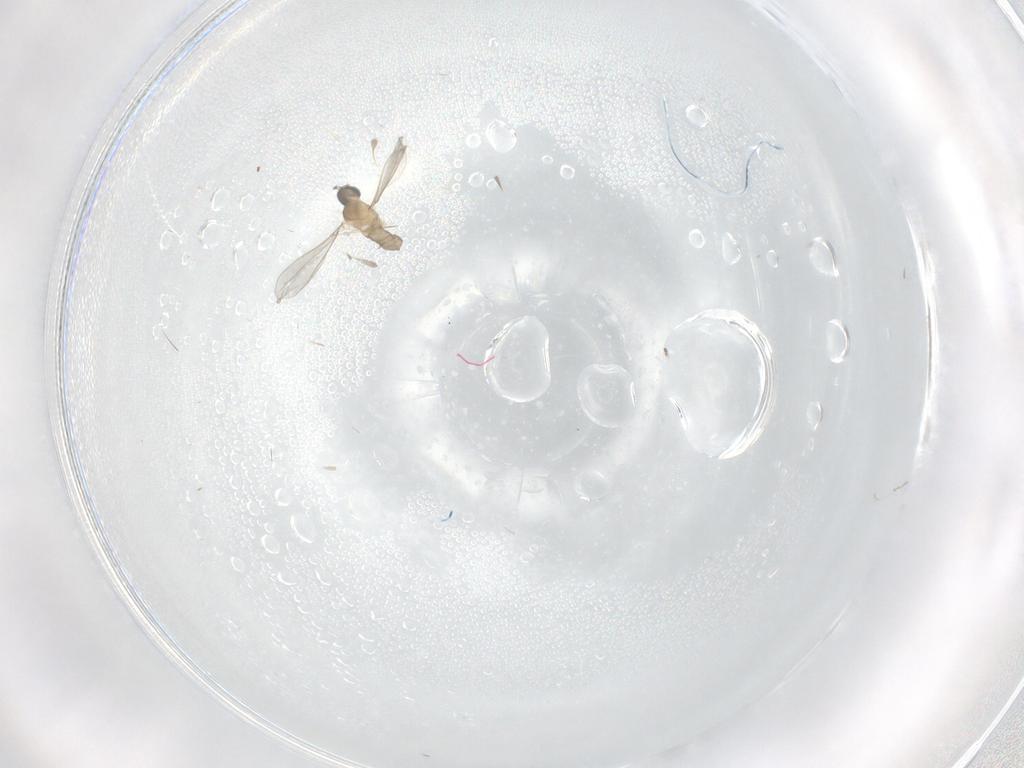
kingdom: Animalia
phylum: Arthropoda
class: Insecta
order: Diptera
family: Cecidomyiidae
